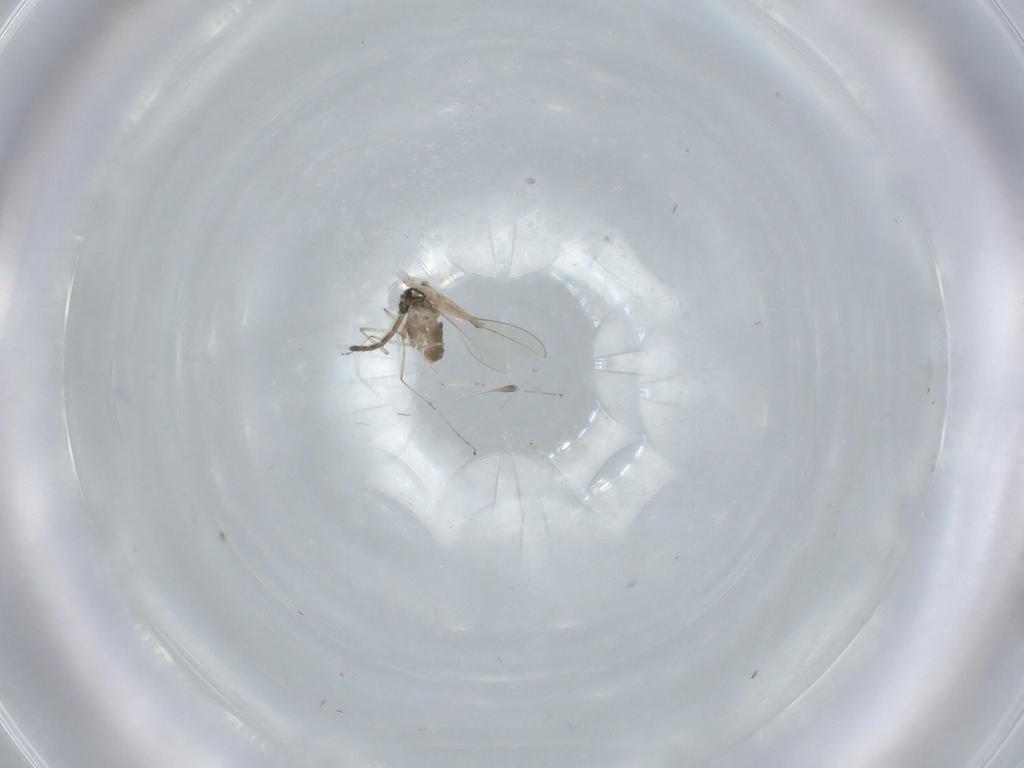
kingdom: Animalia
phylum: Arthropoda
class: Insecta
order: Diptera
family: Cecidomyiidae
